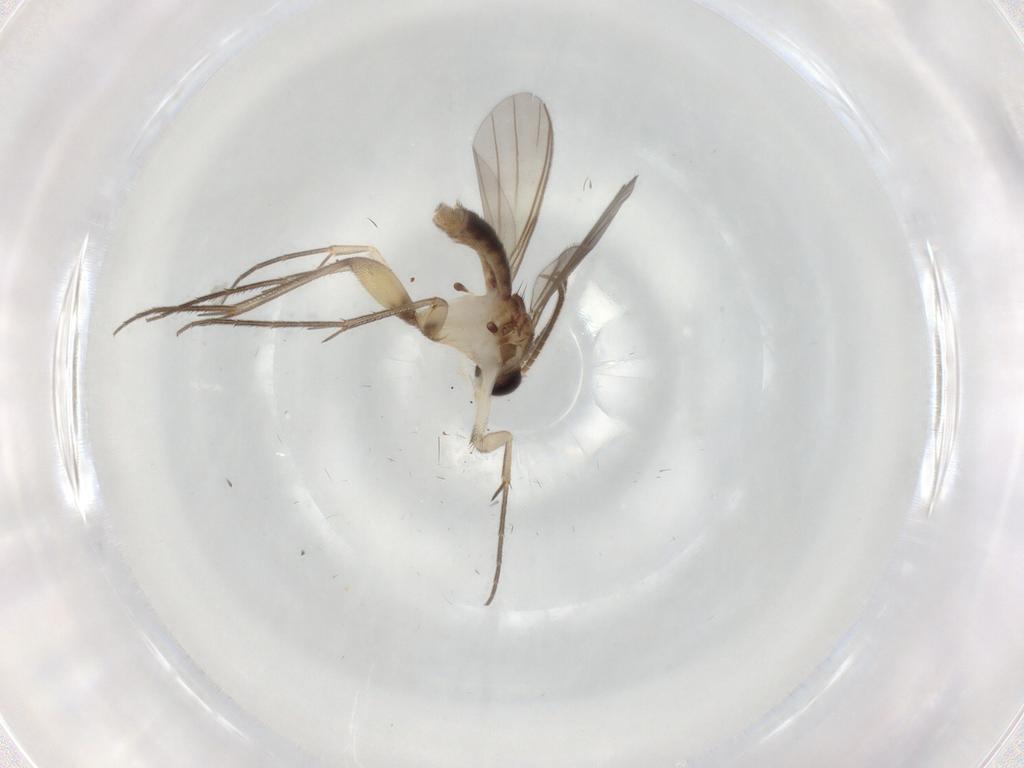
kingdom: Animalia
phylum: Arthropoda
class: Insecta
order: Diptera
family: Mycetophilidae
